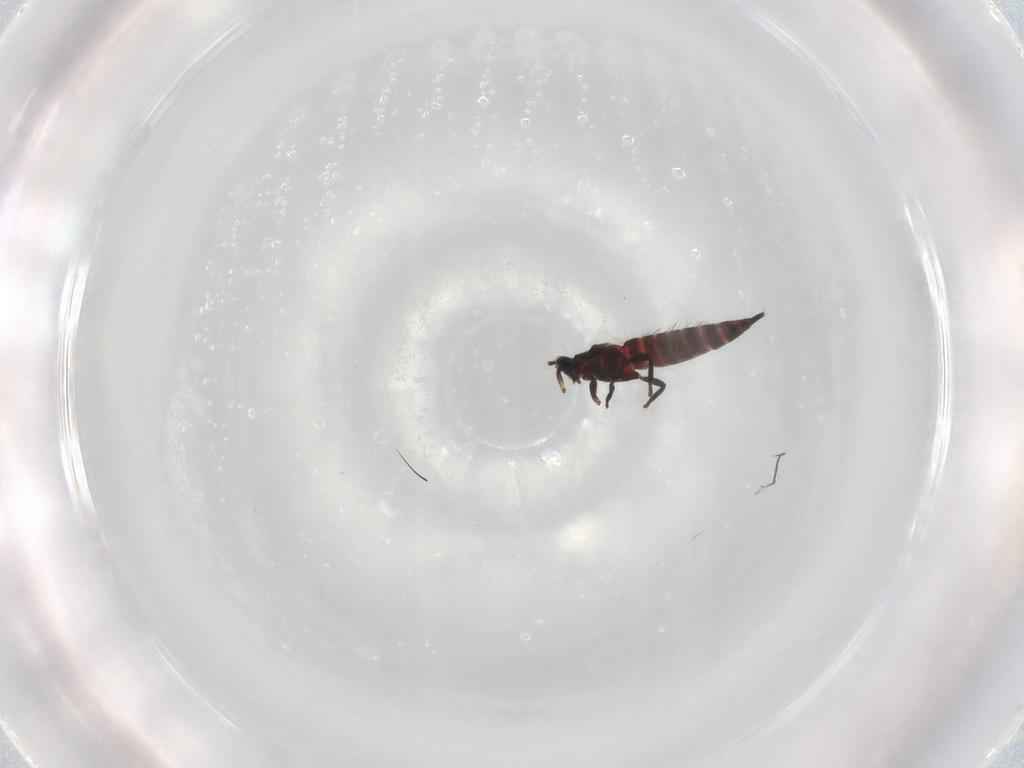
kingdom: Animalia
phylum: Arthropoda
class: Insecta
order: Thysanoptera
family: Phlaeothripidae
